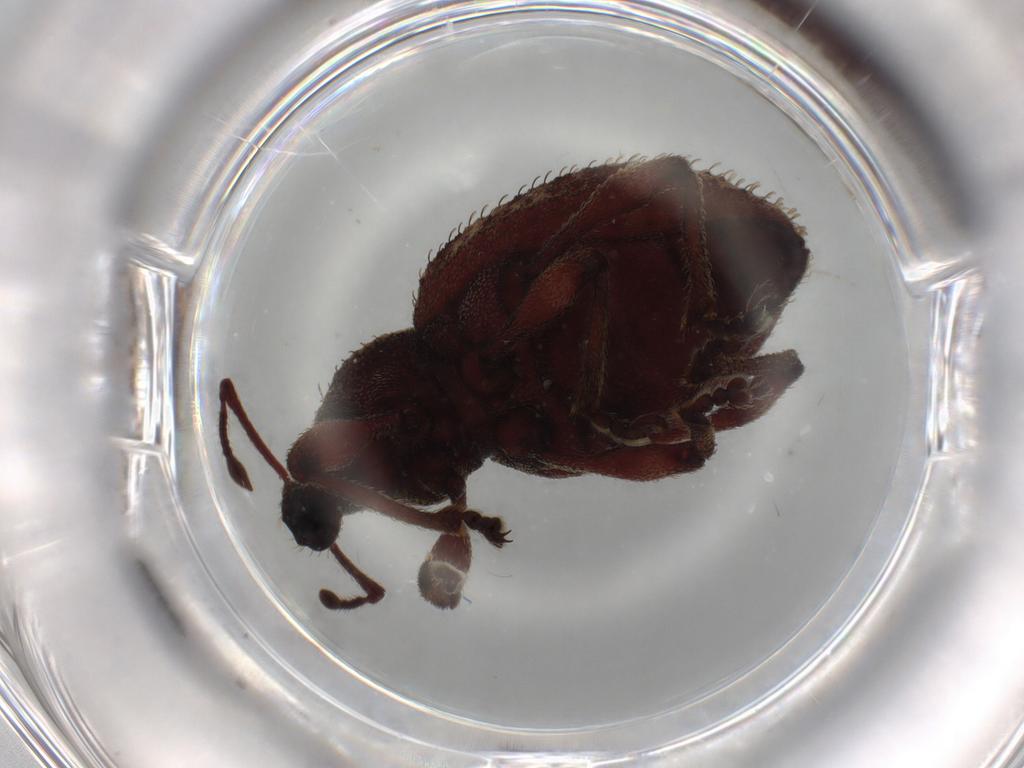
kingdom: Animalia
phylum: Arthropoda
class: Insecta
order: Coleoptera
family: Curculionidae
